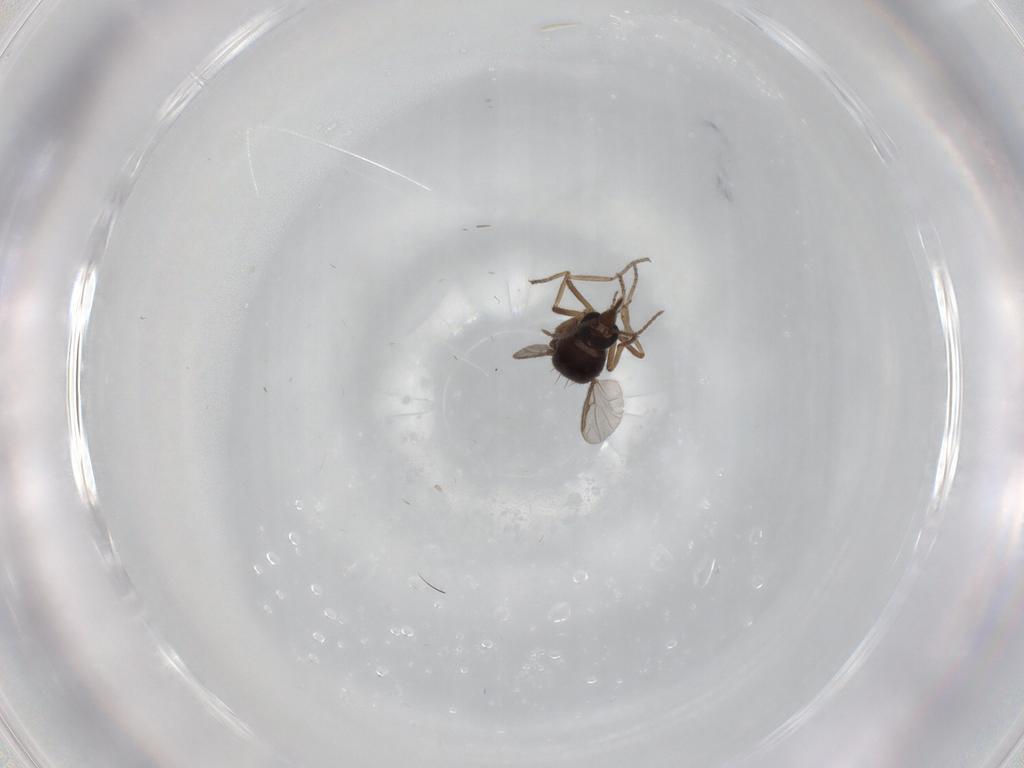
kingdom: Animalia
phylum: Arthropoda
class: Insecta
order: Diptera
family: Ceratopogonidae
